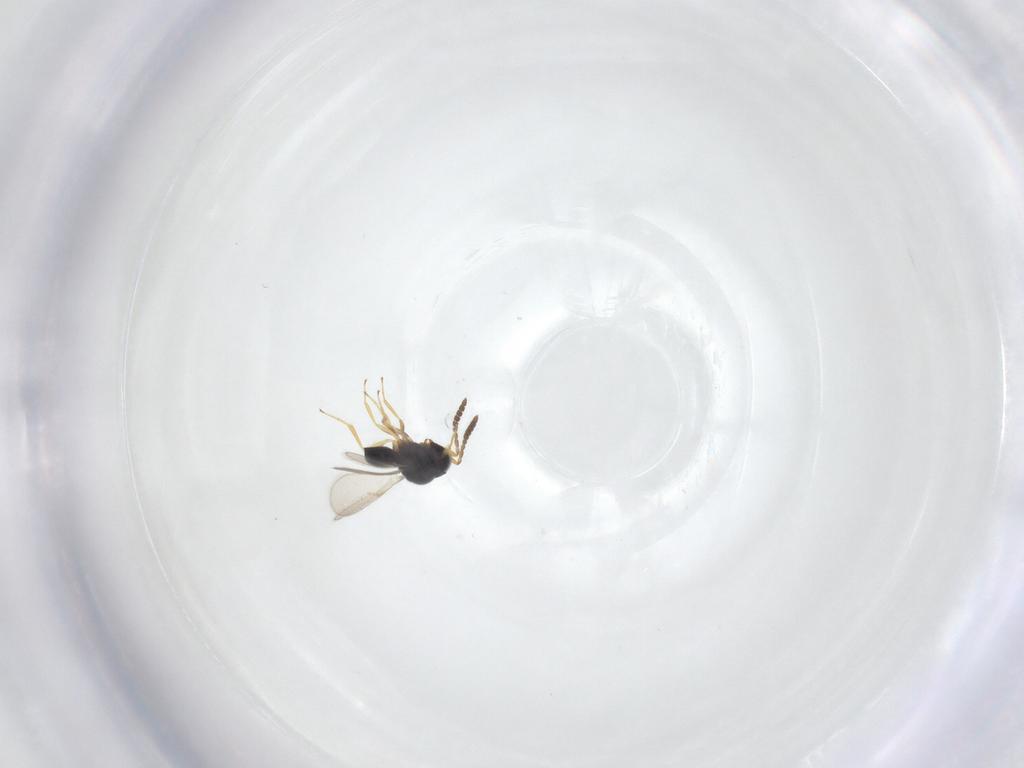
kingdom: Animalia
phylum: Arthropoda
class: Insecta
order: Hymenoptera
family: Scelionidae
